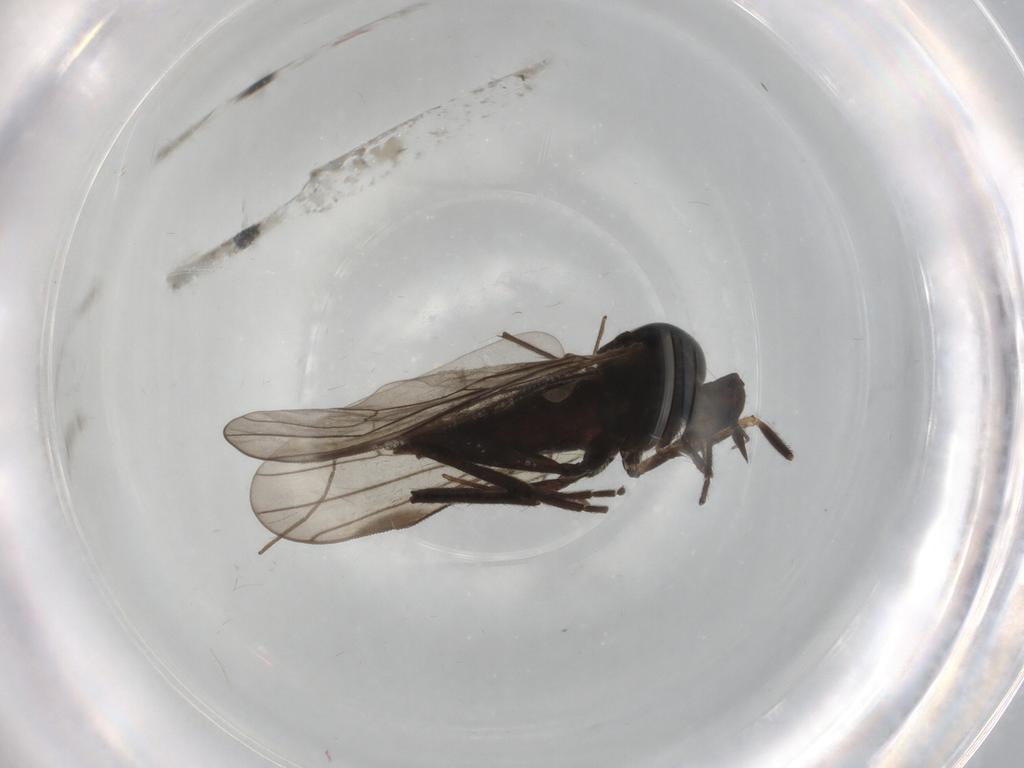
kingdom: Animalia
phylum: Arthropoda
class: Insecta
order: Diptera
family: Hybotidae
